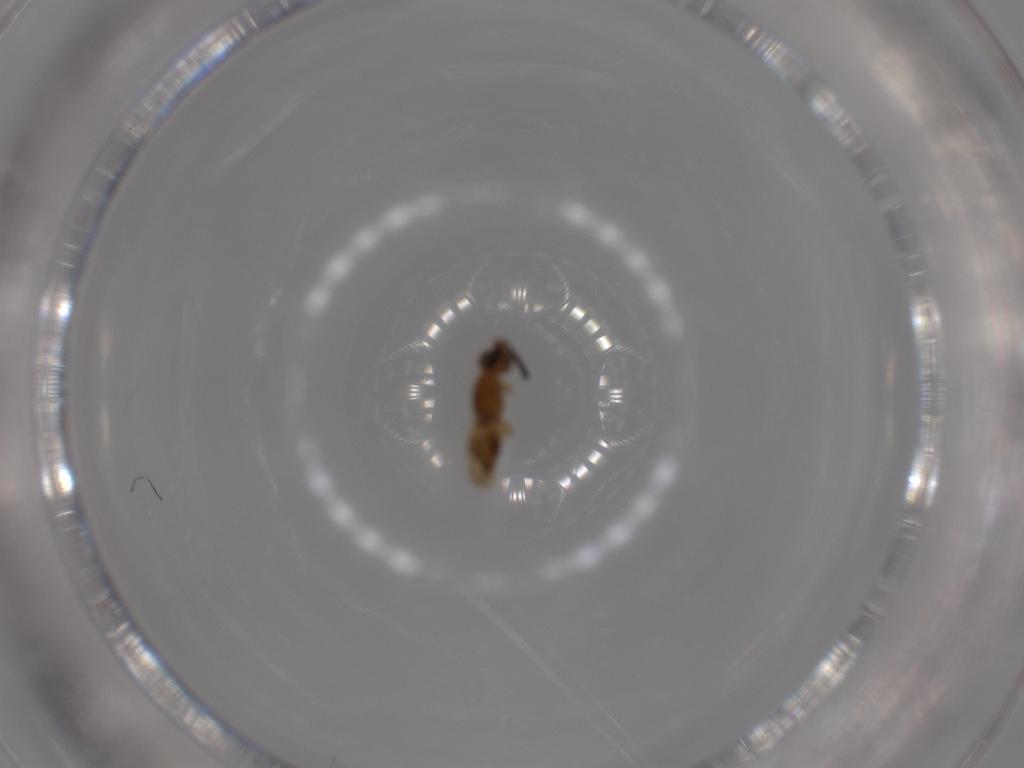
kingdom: Animalia
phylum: Arthropoda
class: Insecta
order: Hymenoptera
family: Ceraphronidae
